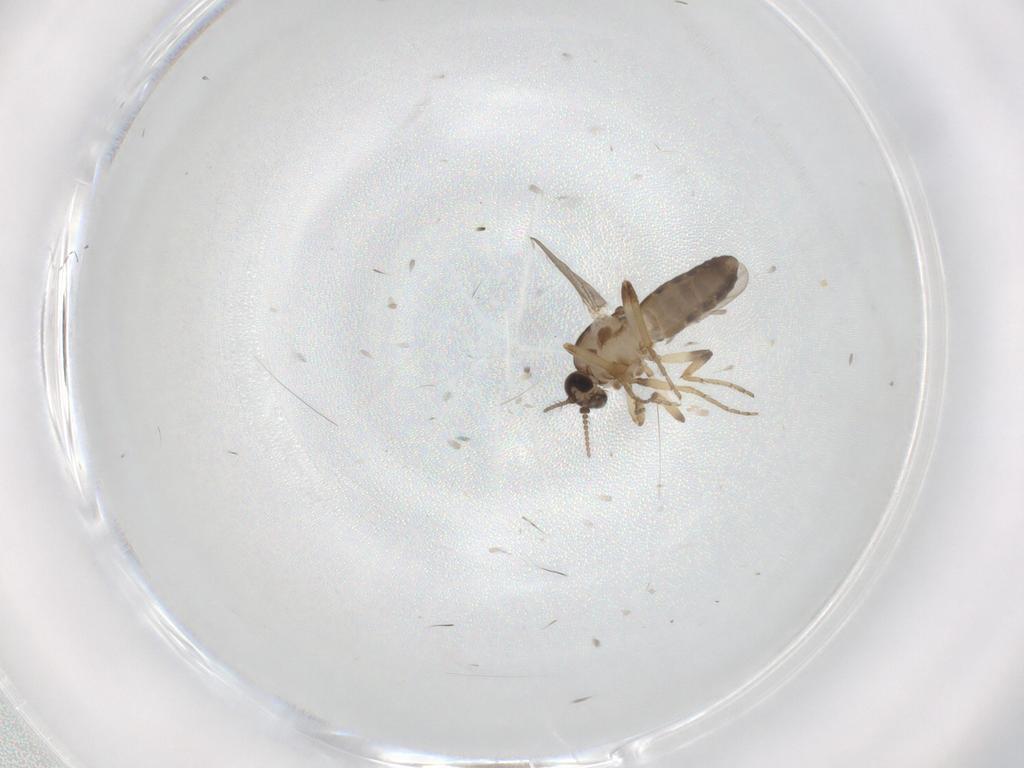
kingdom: Animalia
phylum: Arthropoda
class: Insecta
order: Diptera
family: Ceratopogonidae
